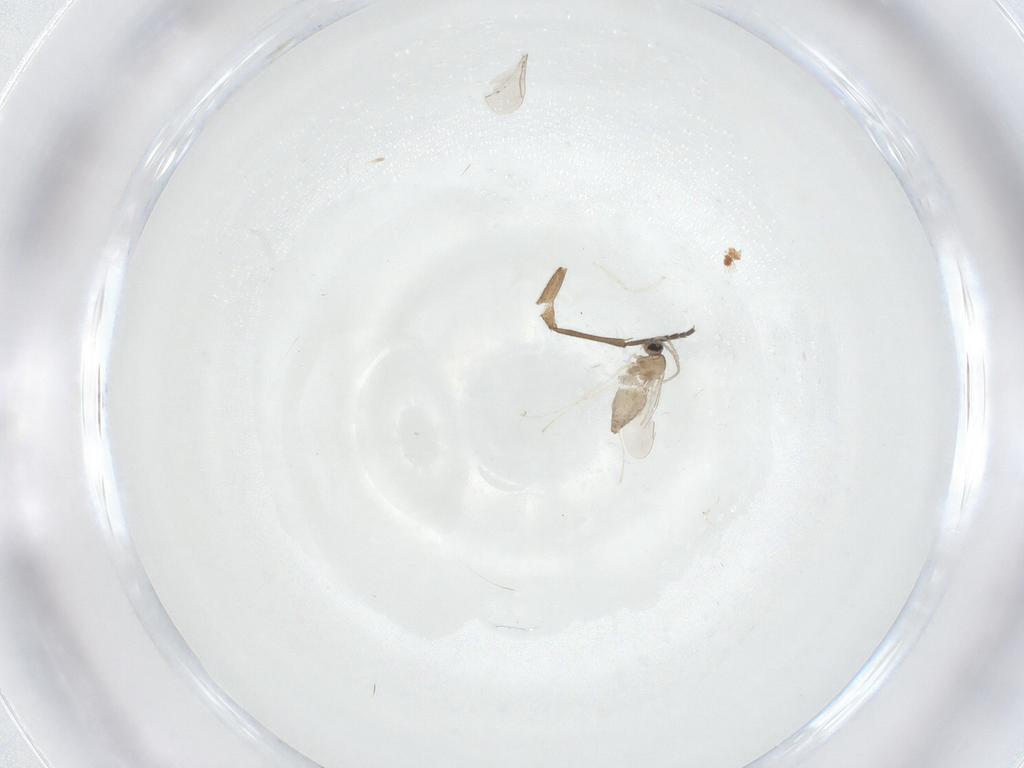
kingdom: Animalia
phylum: Arthropoda
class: Insecta
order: Diptera
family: Cecidomyiidae
